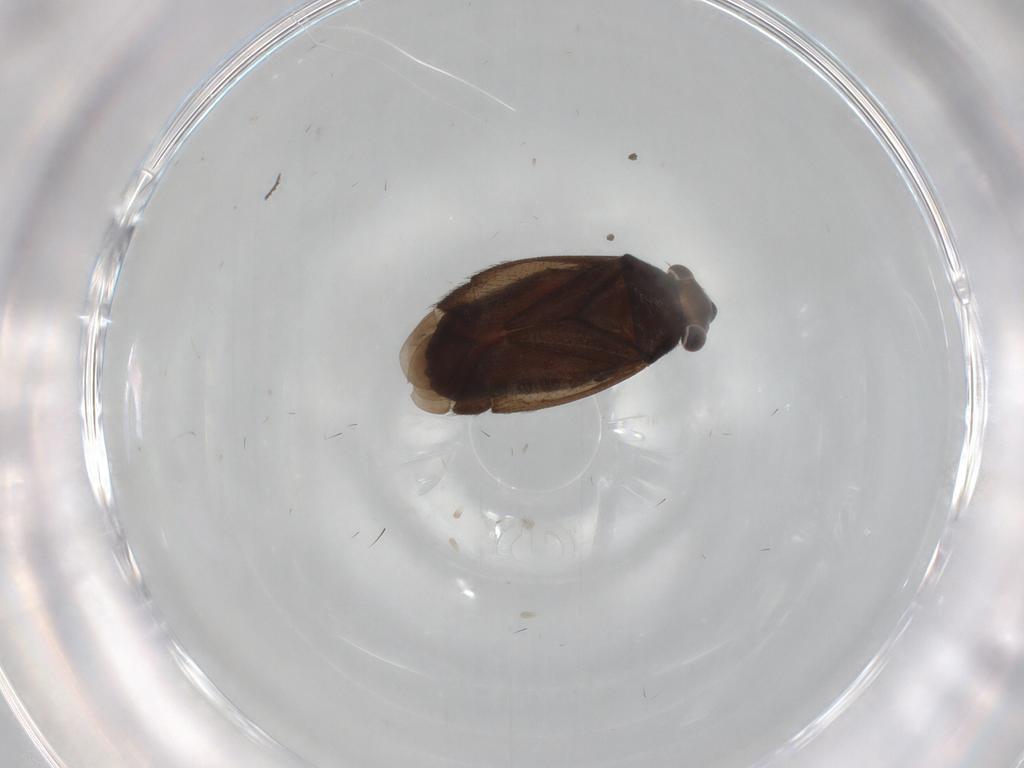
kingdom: Animalia
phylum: Arthropoda
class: Insecta
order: Hemiptera
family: Miridae
